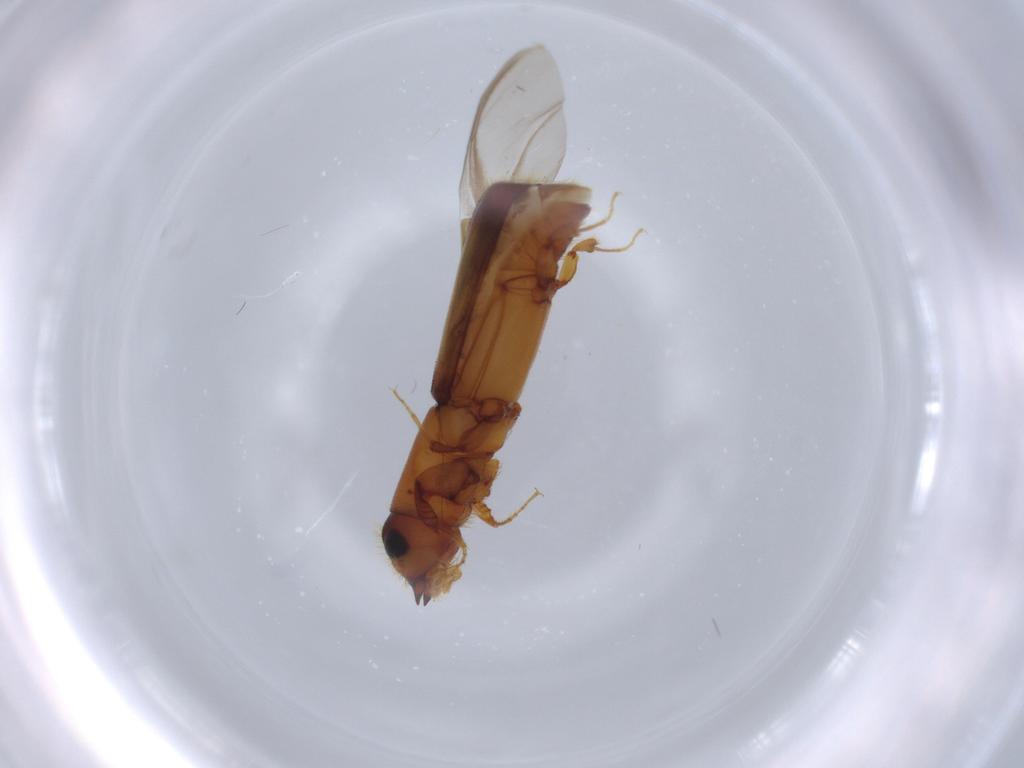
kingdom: Animalia
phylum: Arthropoda
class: Insecta
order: Coleoptera
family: Curculionidae
